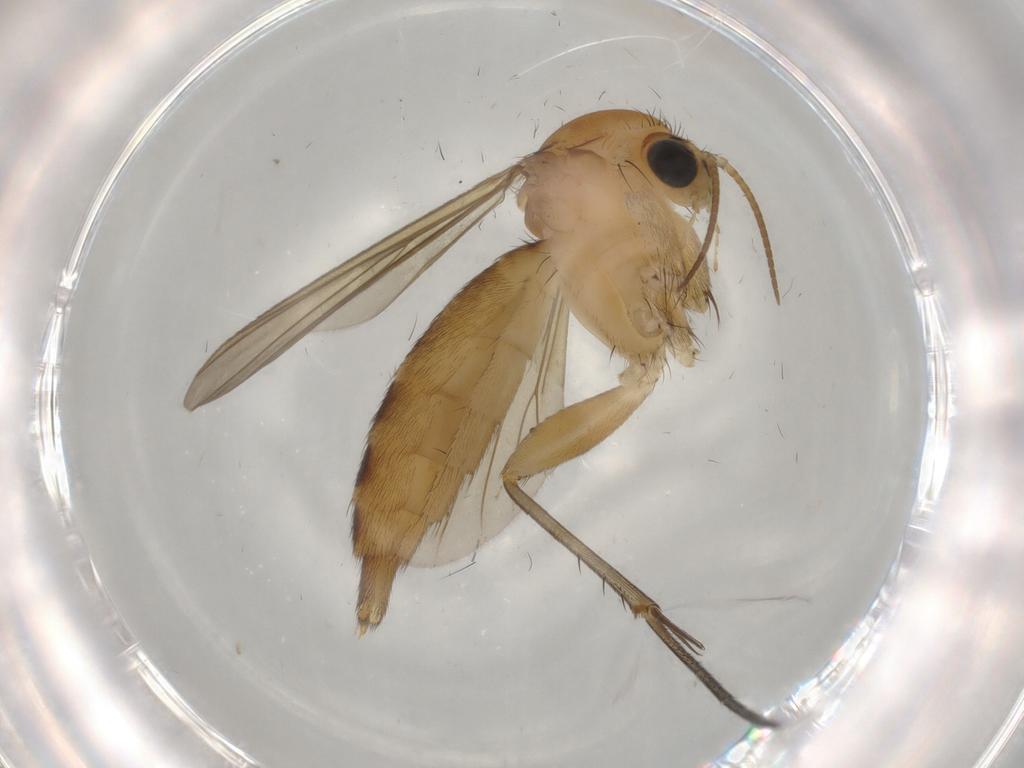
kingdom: Animalia
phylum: Arthropoda
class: Insecta
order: Diptera
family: Mycetophilidae
